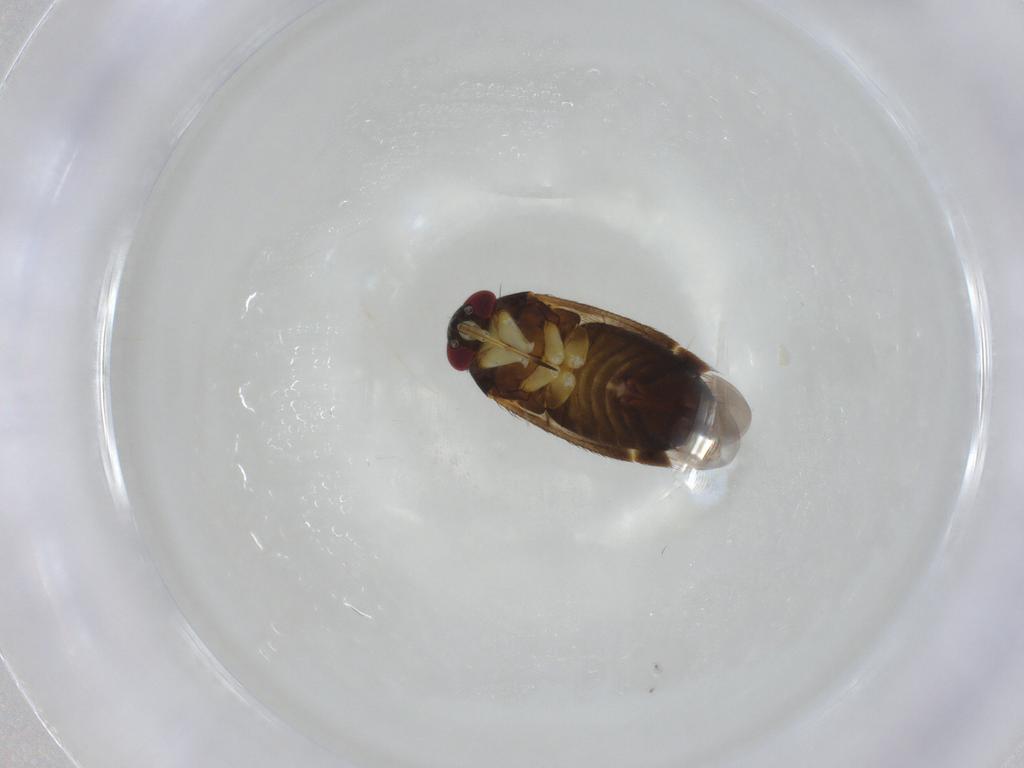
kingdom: Animalia
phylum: Arthropoda
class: Insecta
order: Hymenoptera
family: Braconidae
